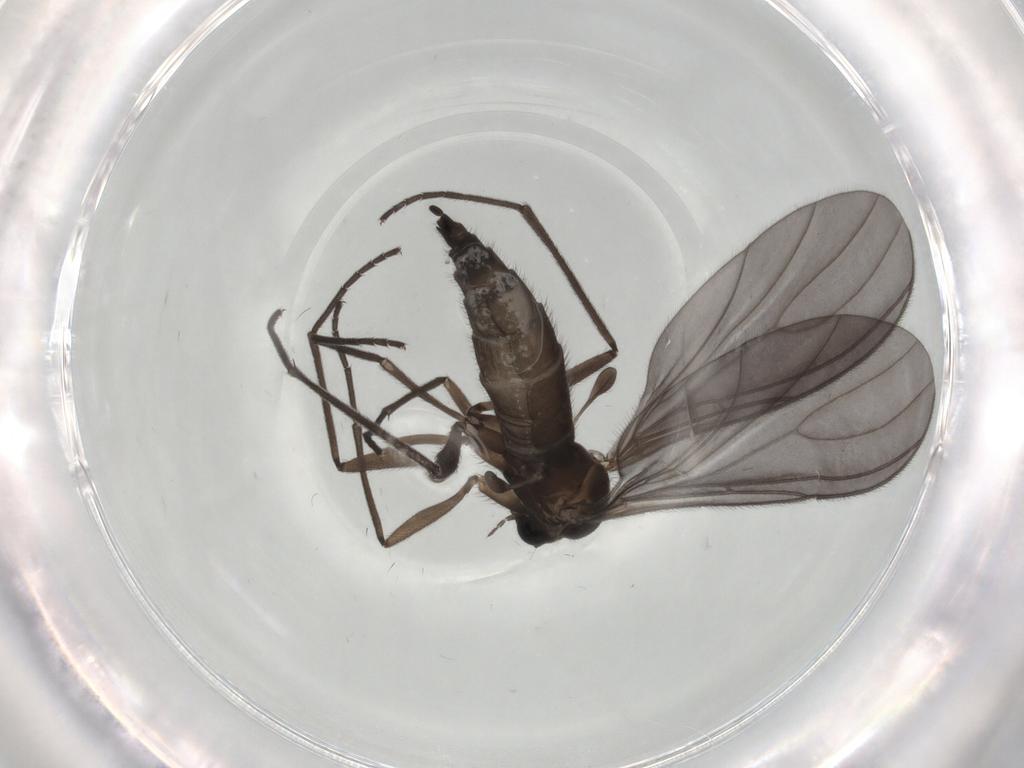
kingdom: Animalia
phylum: Arthropoda
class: Insecta
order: Diptera
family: Sciaridae
